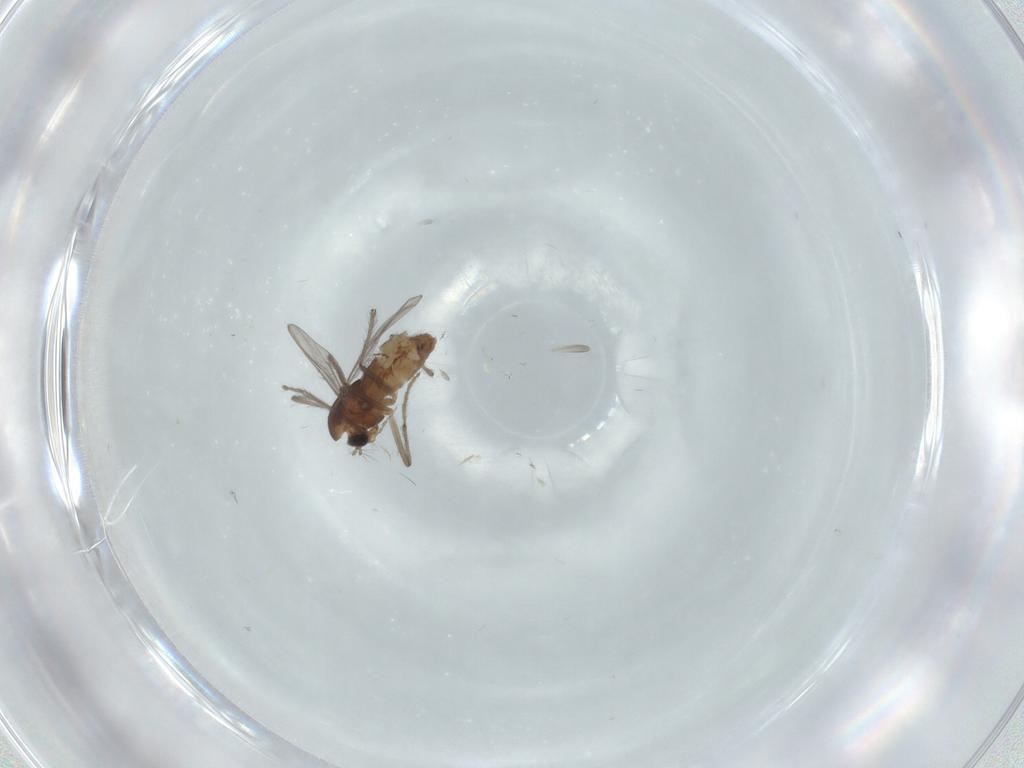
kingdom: Animalia
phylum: Arthropoda
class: Insecta
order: Diptera
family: Chironomidae
